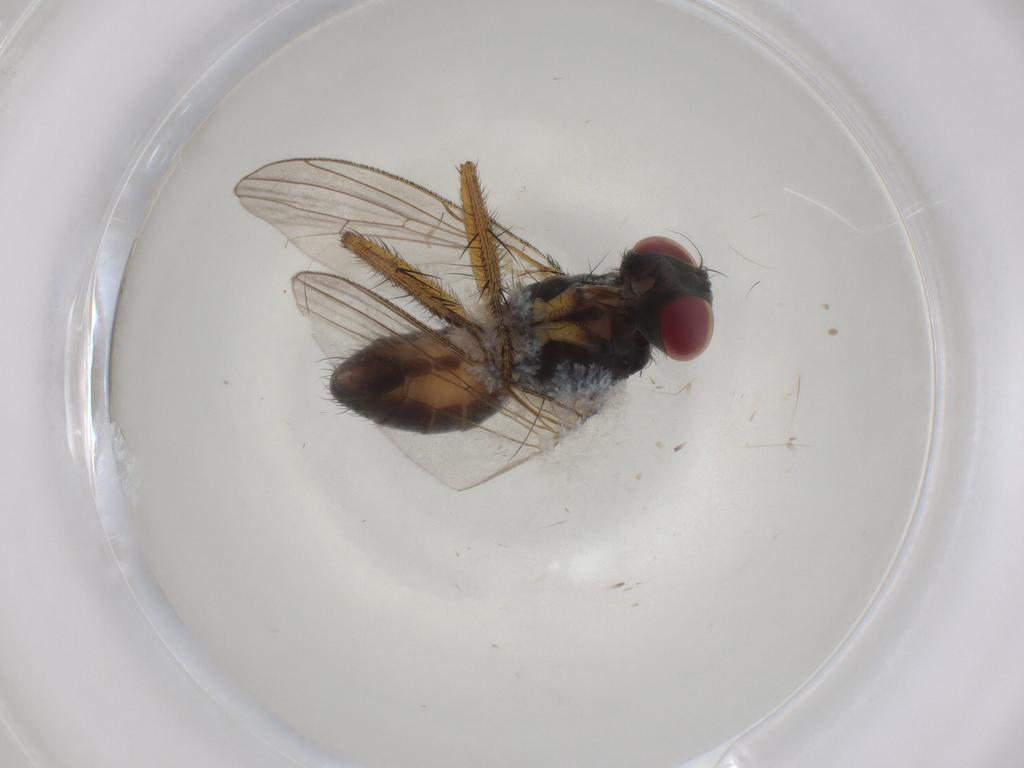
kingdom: Animalia
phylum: Arthropoda
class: Insecta
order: Diptera
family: Muscidae
